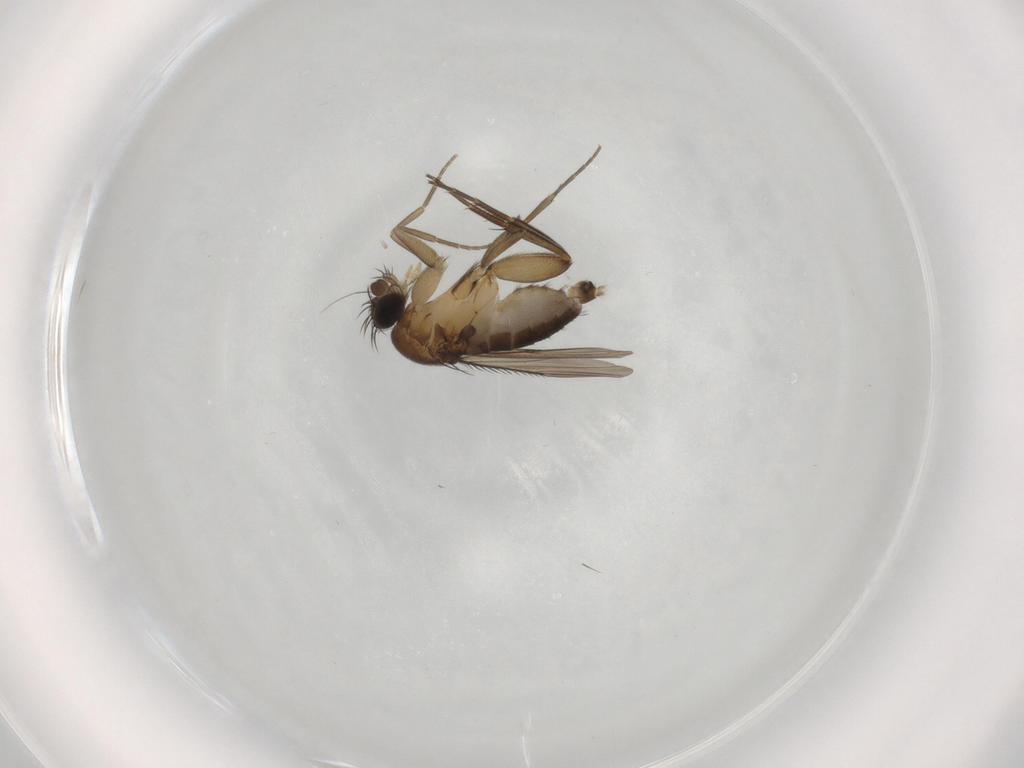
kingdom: Animalia
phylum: Arthropoda
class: Insecta
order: Diptera
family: Phoridae
